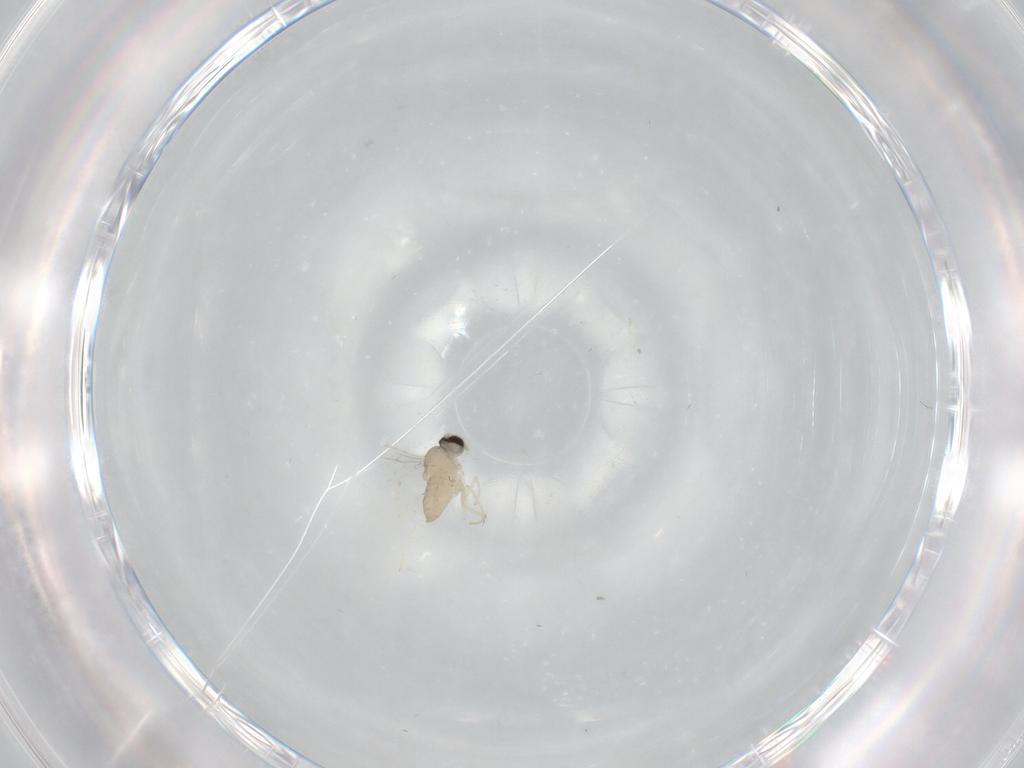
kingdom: Animalia
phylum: Arthropoda
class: Insecta
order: Diptera
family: Cecidomyiidae
